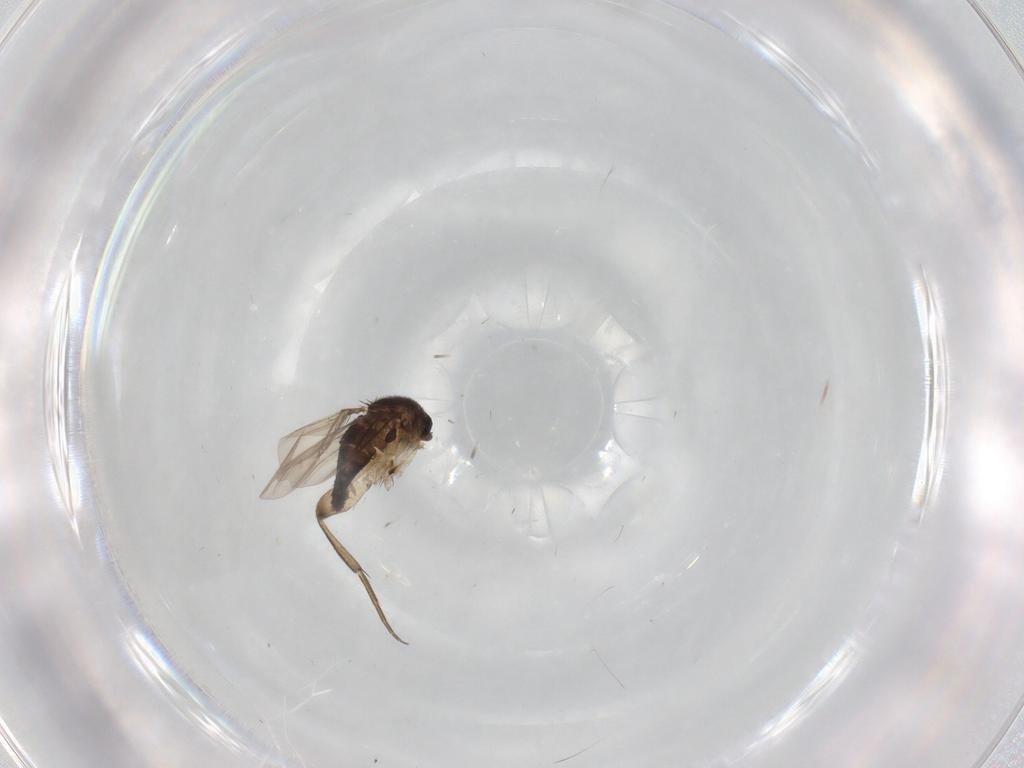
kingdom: Animalia
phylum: Arthropoda
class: Insecta
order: Diptera
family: Phoridae
